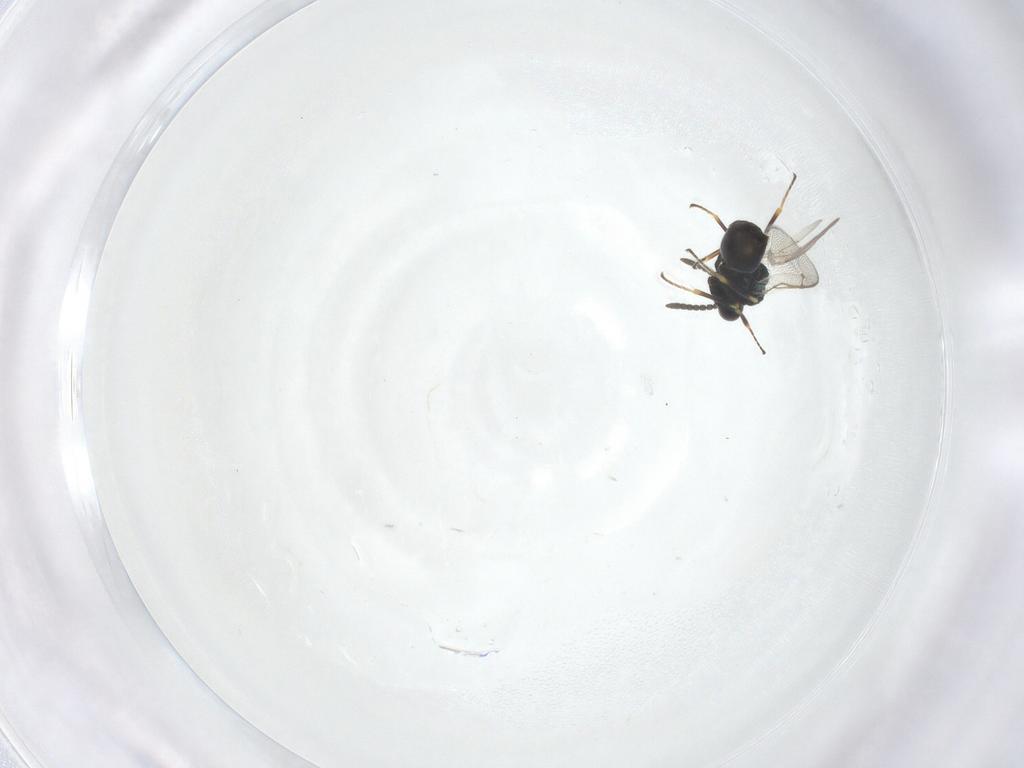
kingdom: Animalia
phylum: Arthropoda
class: Insecta
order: Hymenoptera
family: Pteromalidae
